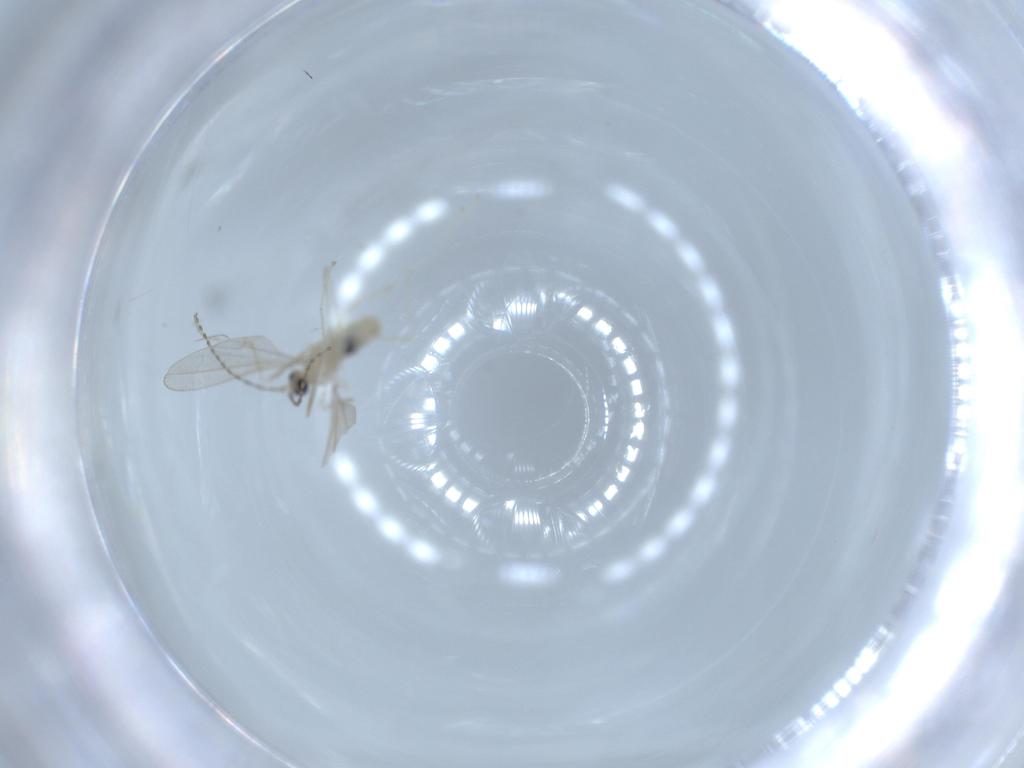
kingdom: Animalia
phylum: Arthropoda
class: Insecta
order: Diptera
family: Cecidomyiidae
